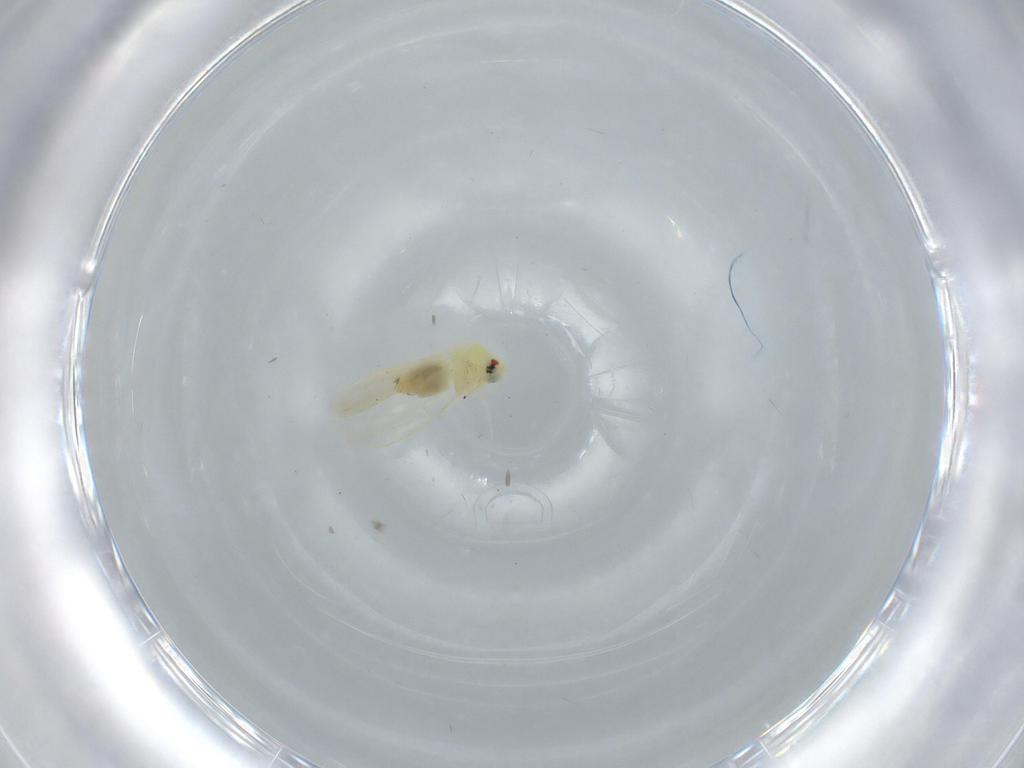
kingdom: Animalia
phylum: Arthropoda
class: Insecta
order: Hemiptera
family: Aleyrodidae
